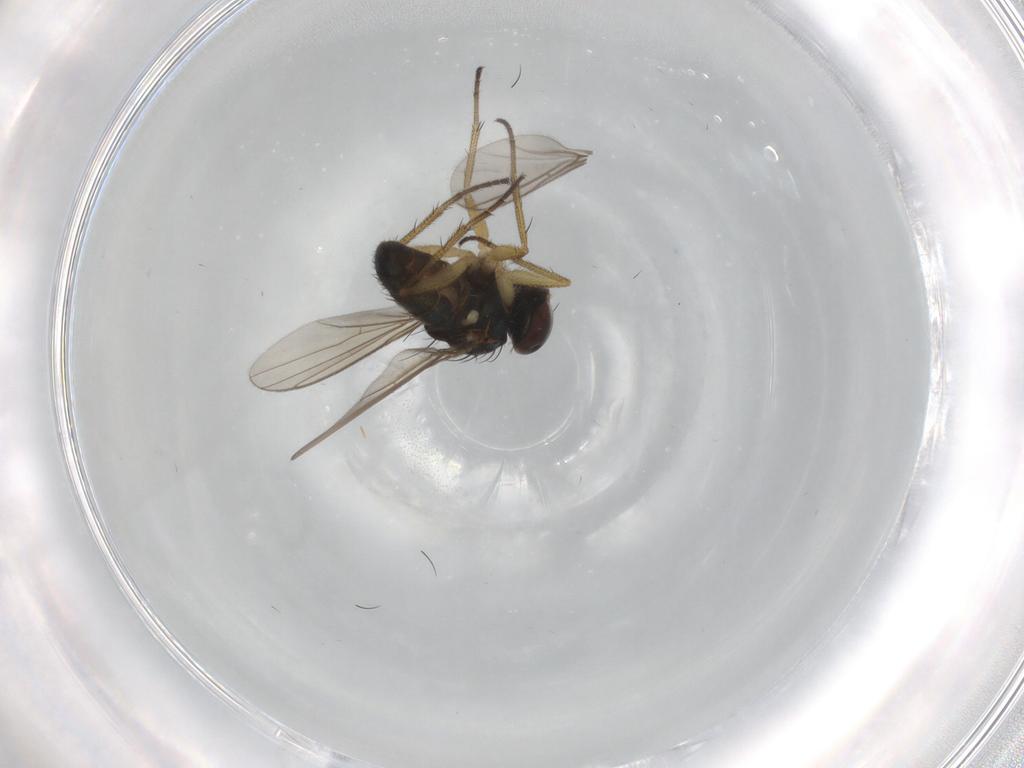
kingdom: Animalia
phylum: Arthropoda
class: Insecta
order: Diptera
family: Dolichopodidae
